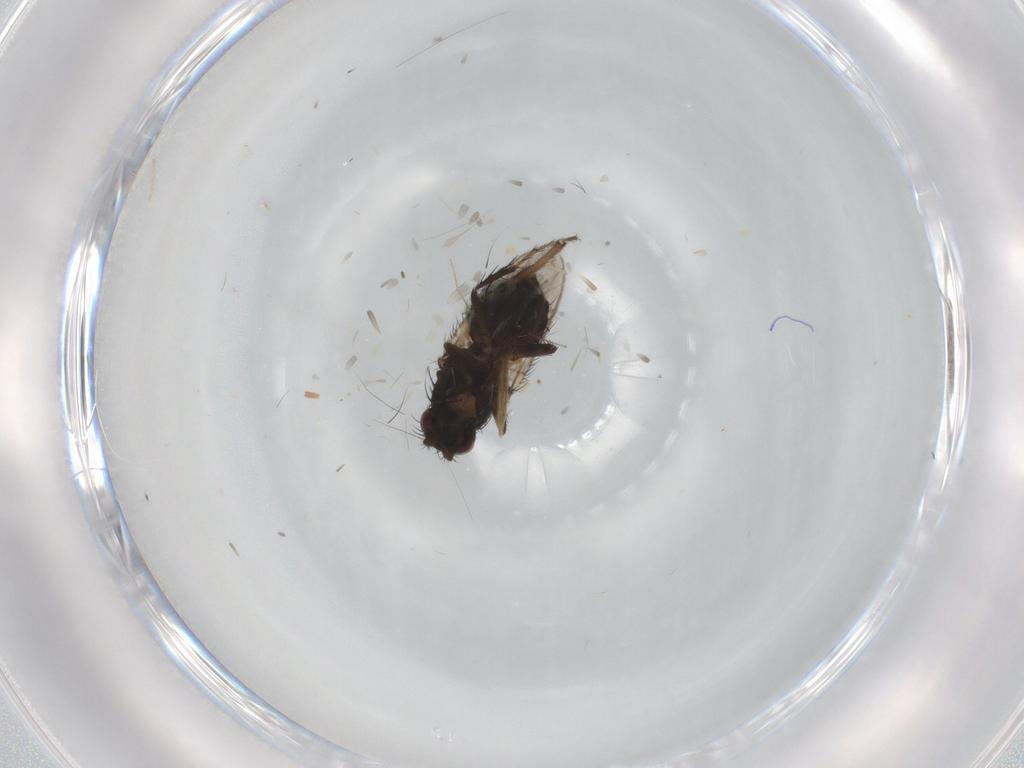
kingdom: Animalia
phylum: Arthropoda
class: Insecta
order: Diptera
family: Sphaeroceridae
